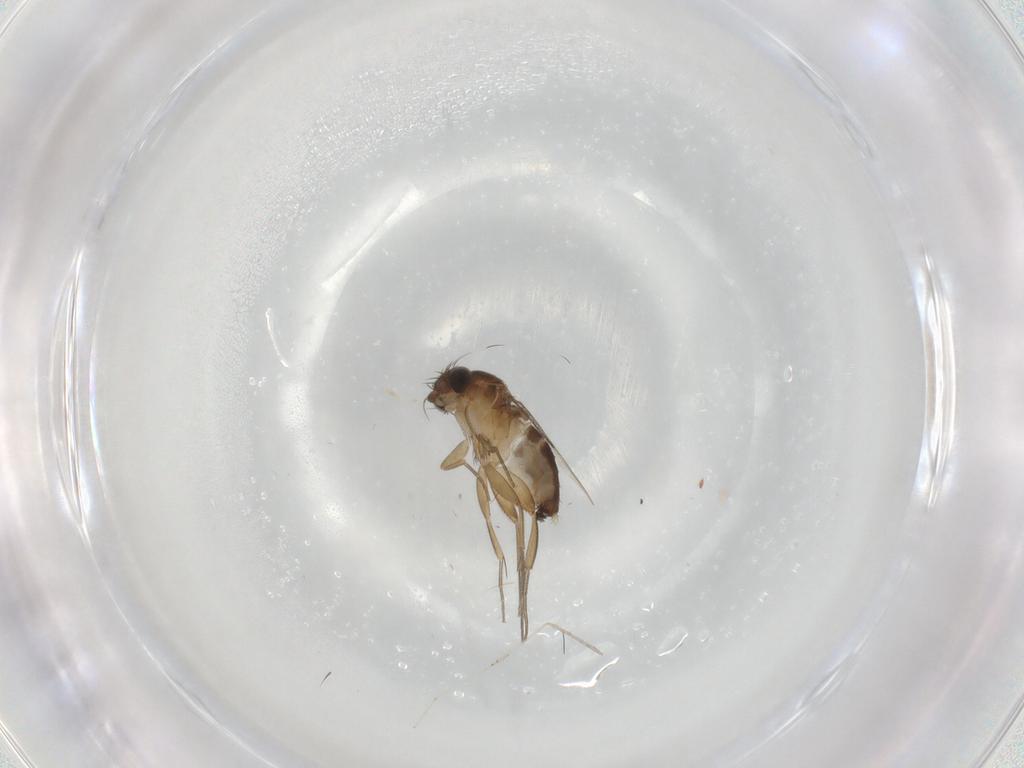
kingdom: Animalia
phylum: Arthropoda
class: Insecta
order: Diptera
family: Phoridae
